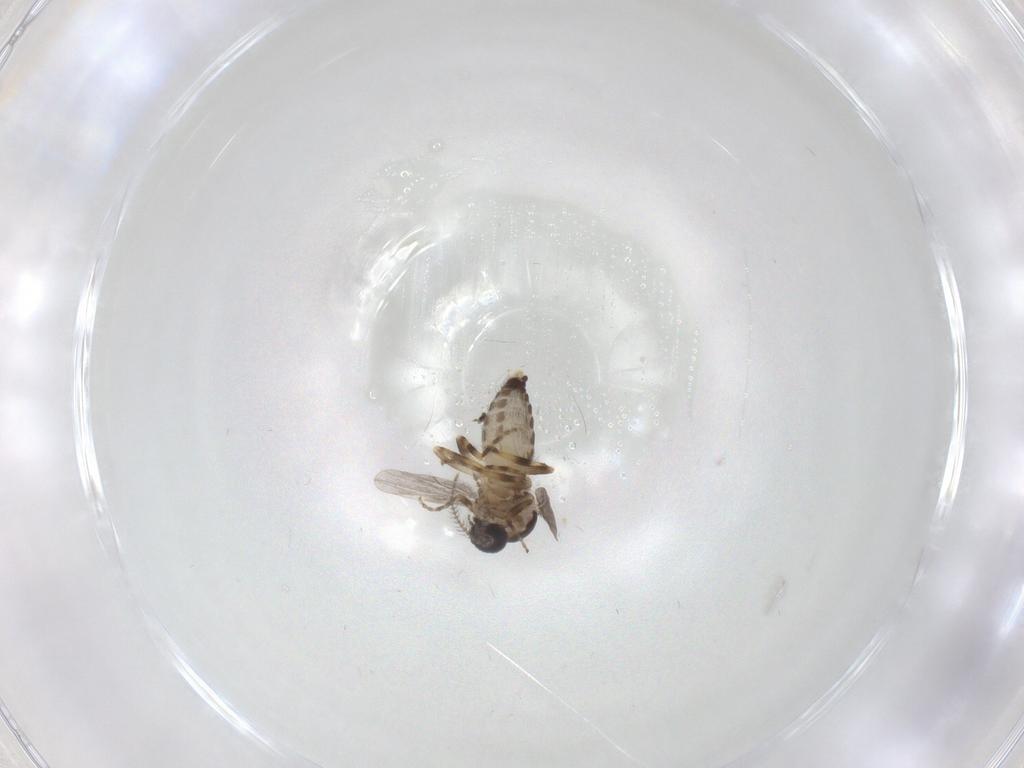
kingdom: Animalia
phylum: Arthropoda
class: Insecta
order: Diptera
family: Ceratopogonidae
